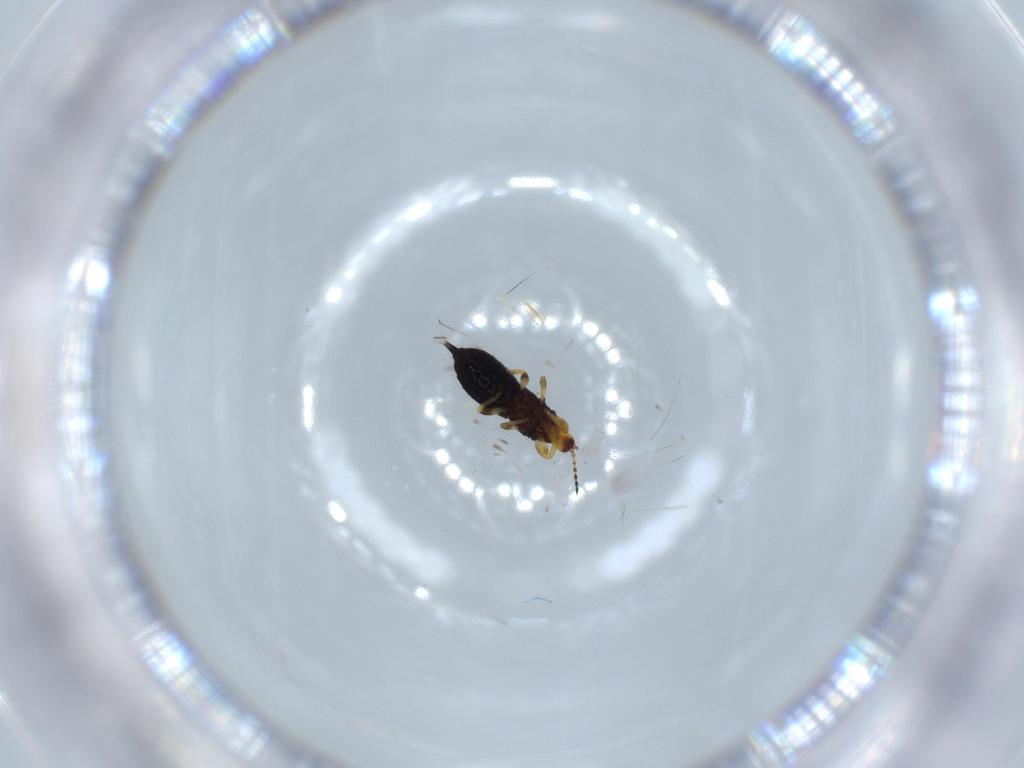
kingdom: Animalia
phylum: Arthropoda
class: Insecta
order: Thysanoptera
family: Phlaeothripidae
